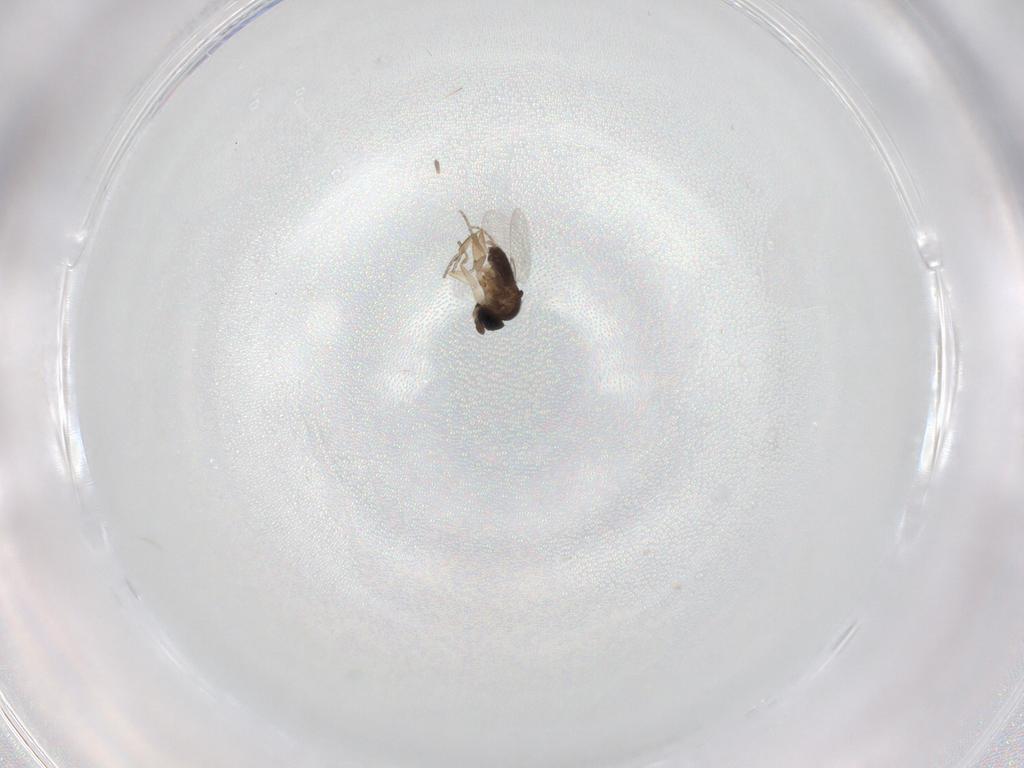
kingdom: Animalia
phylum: Arthropoda
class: Insecta
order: Diptera
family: Phoridae
